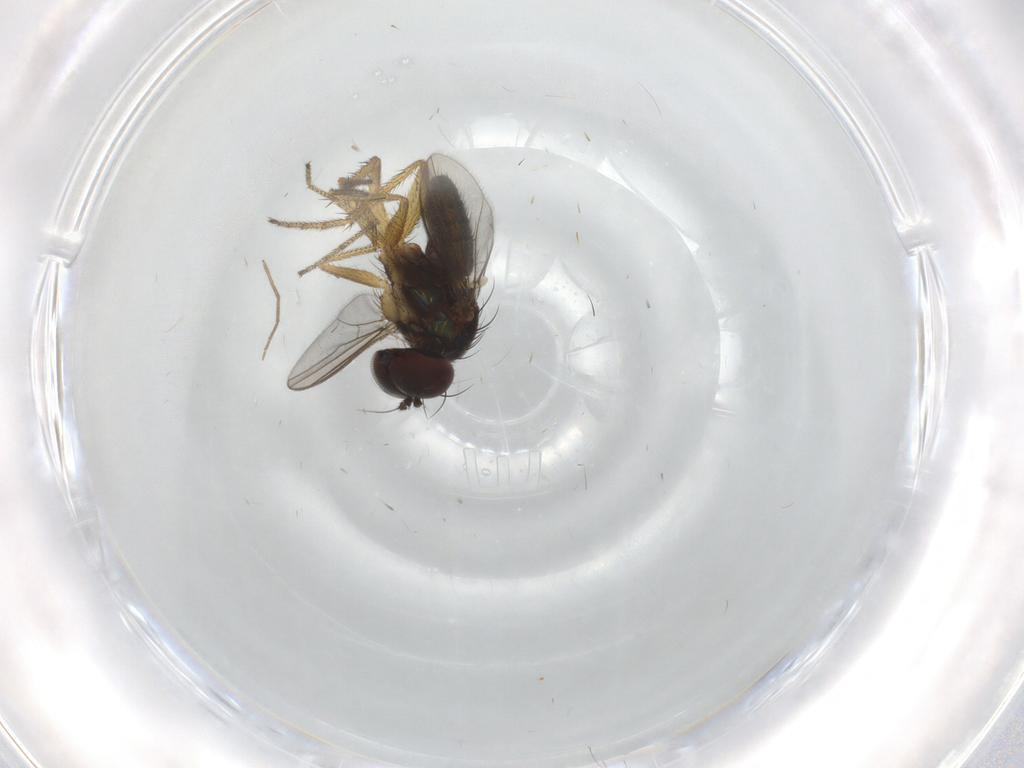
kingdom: Animalia
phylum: Arthropoda
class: Insecta
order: Diptera
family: Chironomidae
